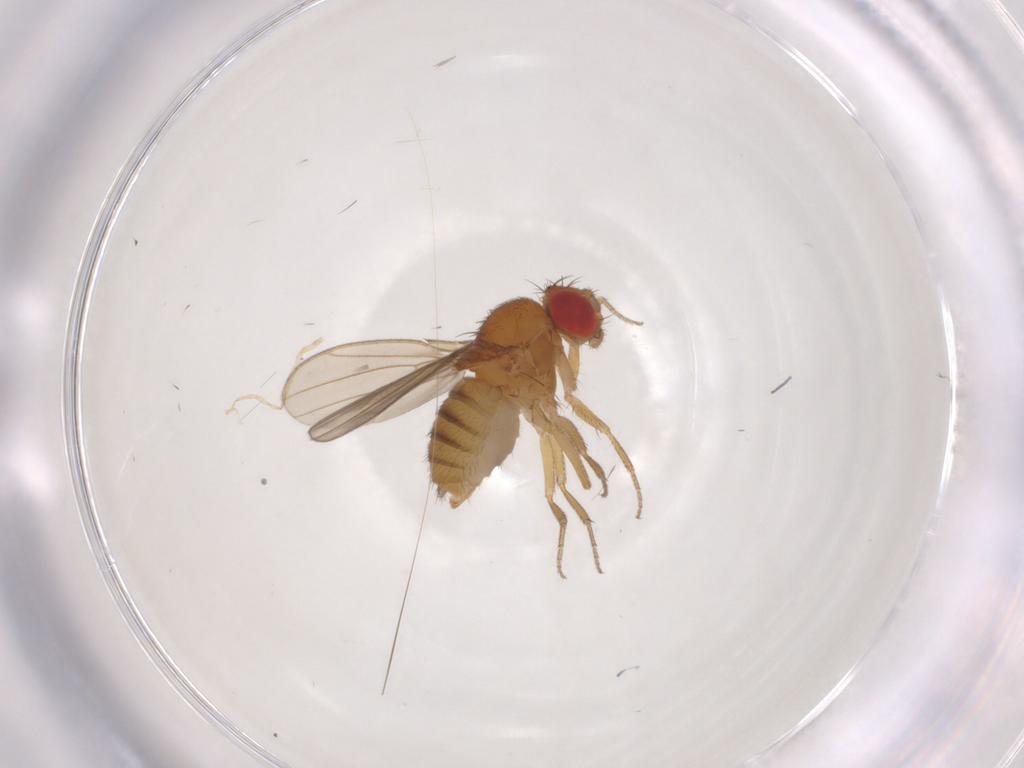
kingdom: Animalia
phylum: Arthropoda
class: Insecta
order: Diptera
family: Drosophilidae
